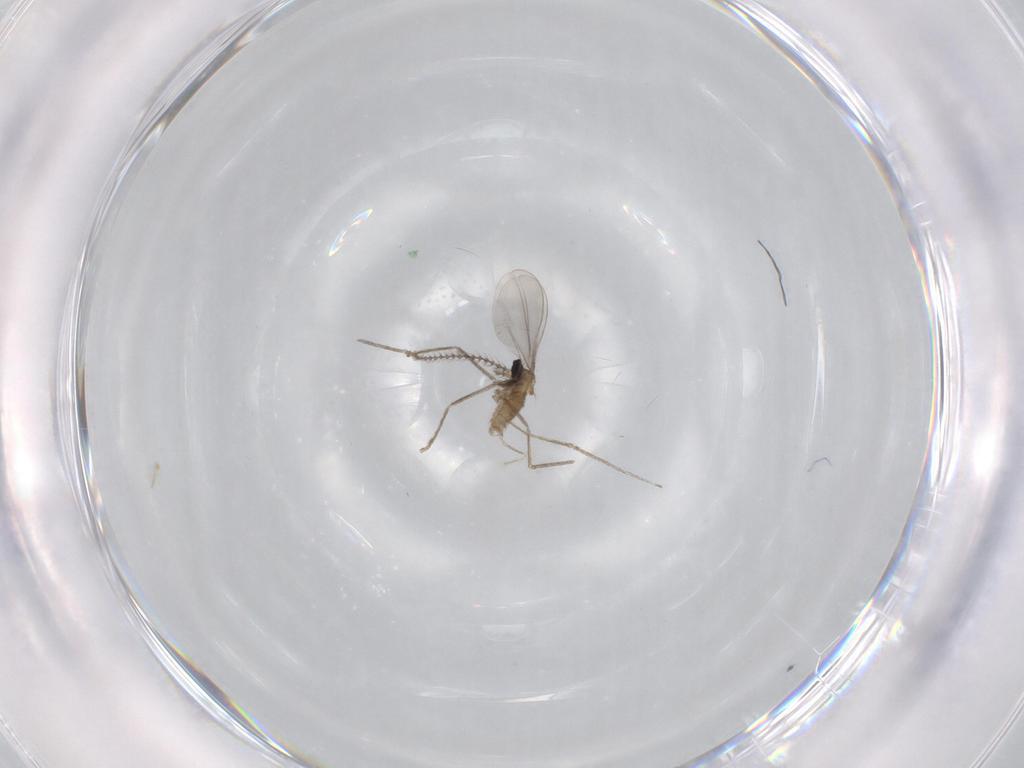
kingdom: Animalia
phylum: Arthropoda
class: Insecta
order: Diptera
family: Cecidomyiidae
